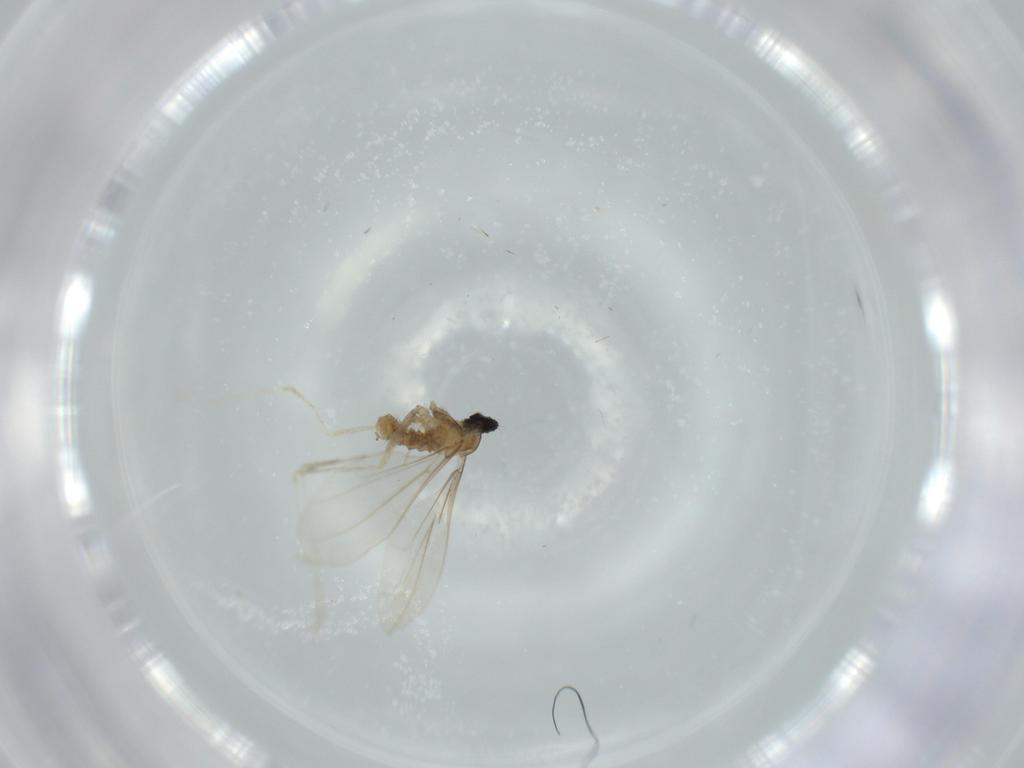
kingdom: Animalia
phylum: Arthropoda
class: Insecta
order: Diptera
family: Cecidomyiidae
